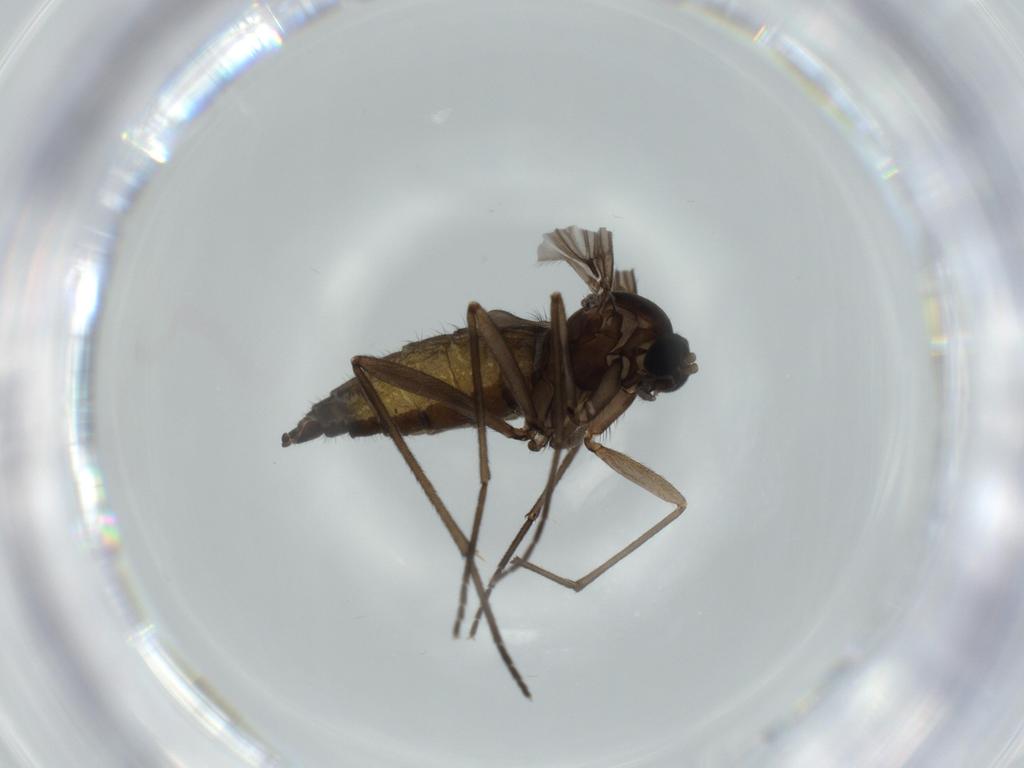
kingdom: Animalia
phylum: Arthropoda
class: Insecta
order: Diptera
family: Sciaridae
